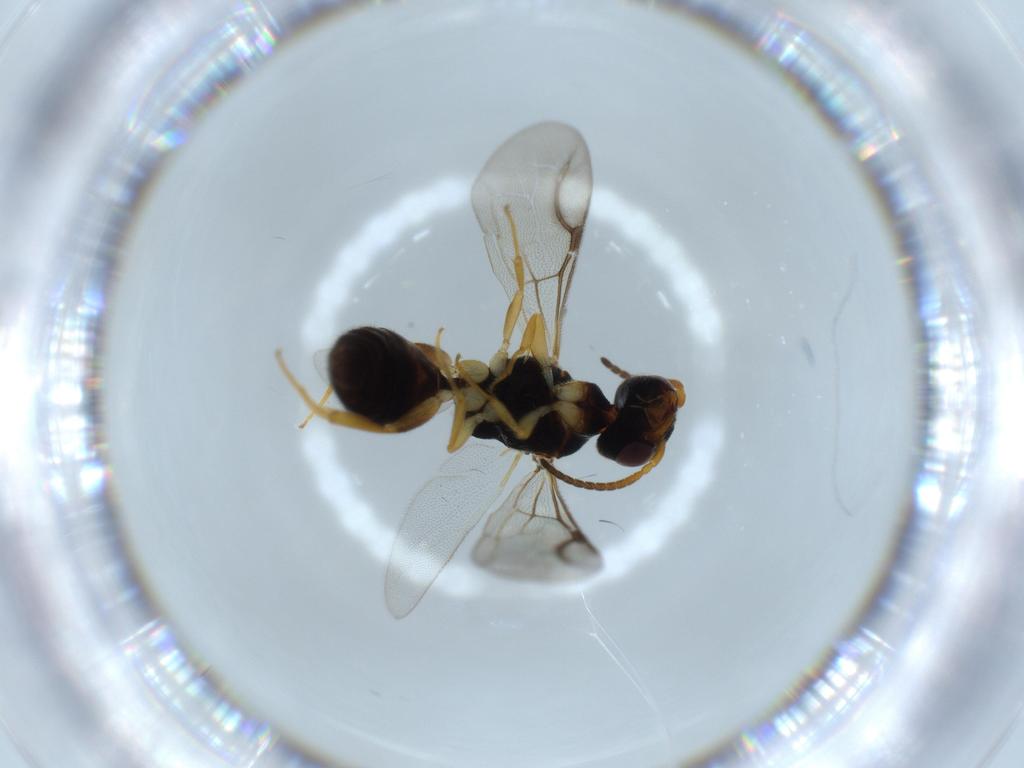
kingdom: Animalia
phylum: Arthropoda
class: Insecta
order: Hymenoptera
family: Bethylidae
